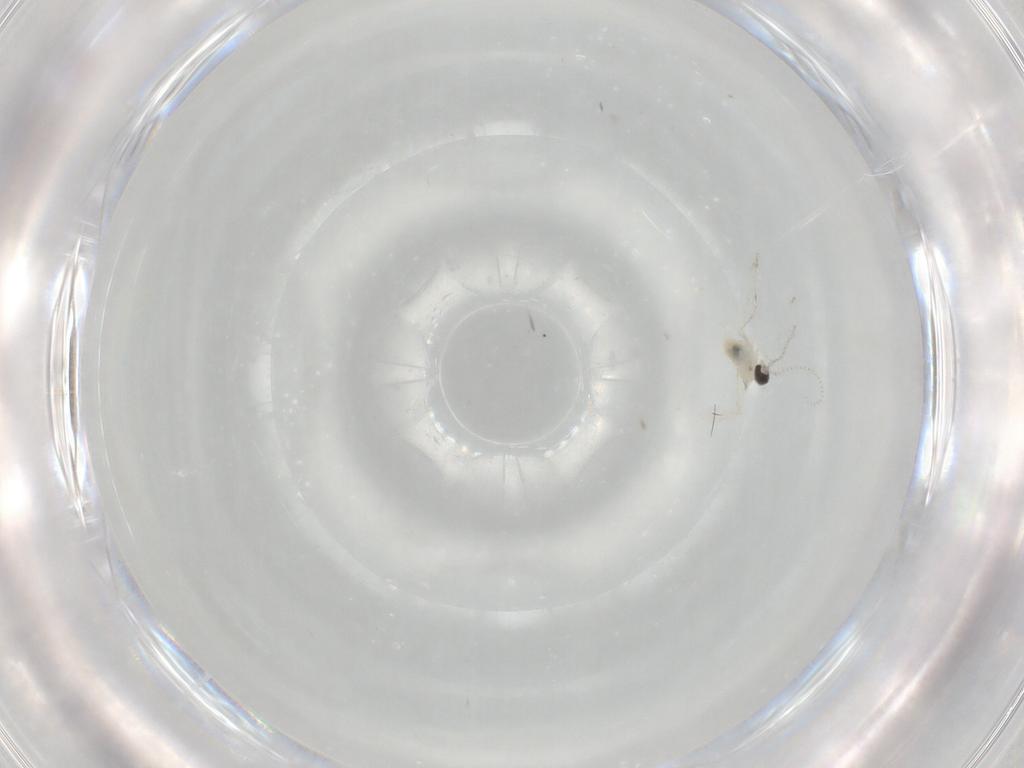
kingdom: Animalia
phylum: Arthropoda
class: Insecta
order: Diptera
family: Cecidomyiidae
